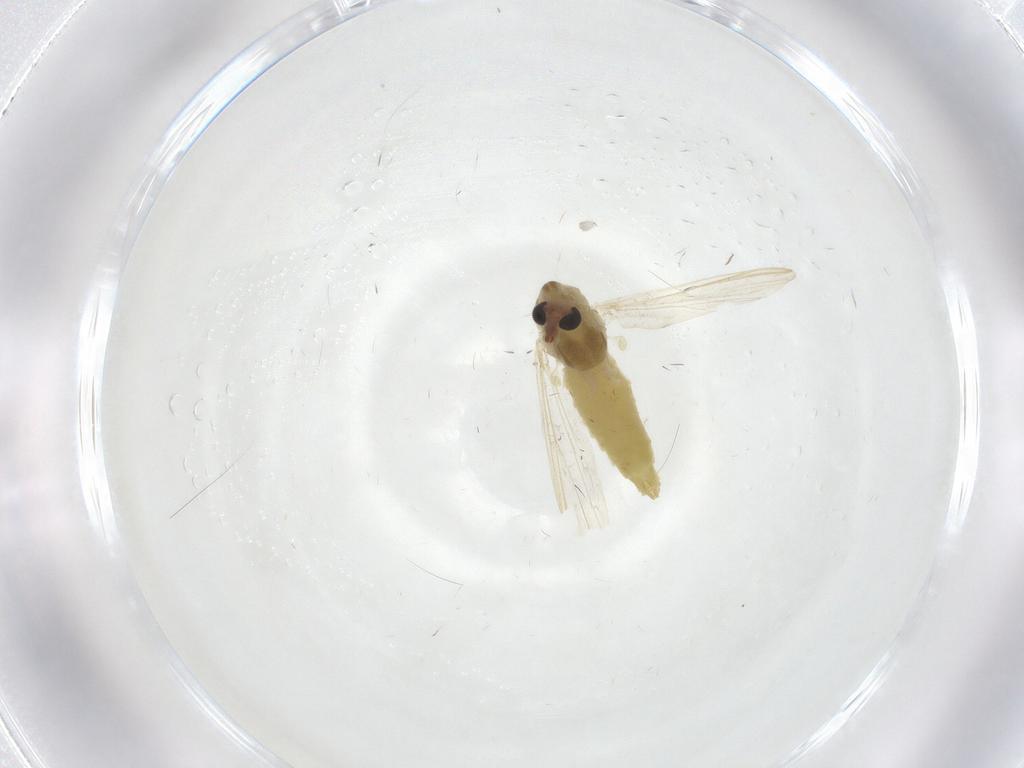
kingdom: Animalia
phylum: Arthropoda
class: Insecta
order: Diptera
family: Chironomidae
